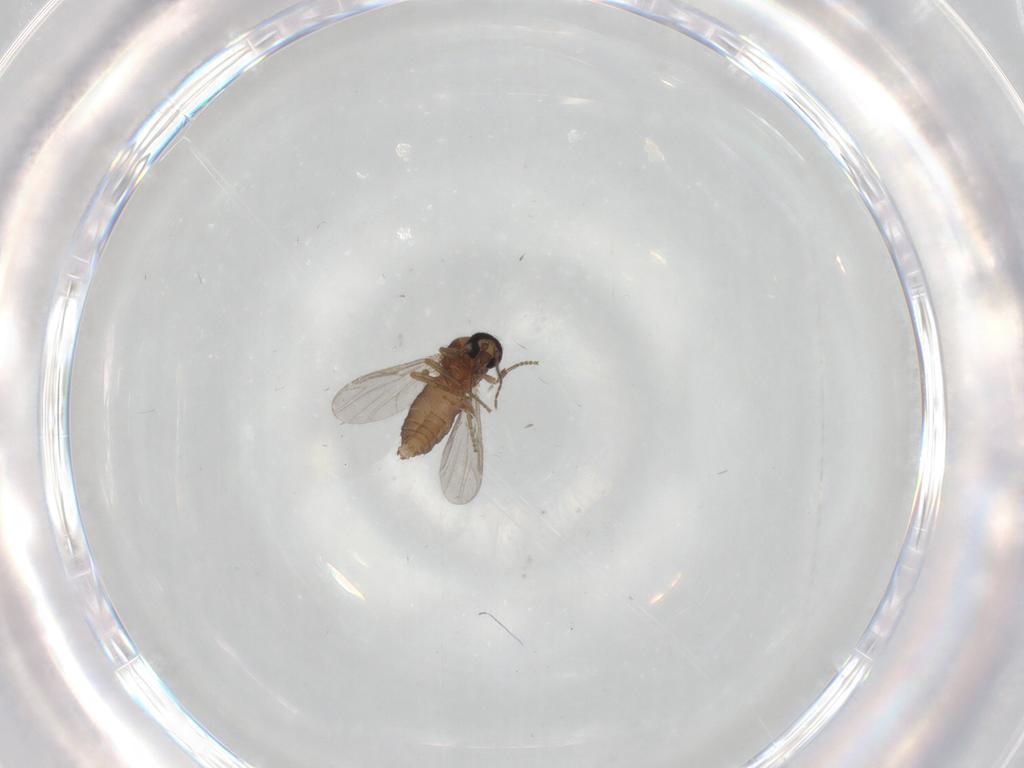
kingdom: Animalia
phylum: Arthropoda
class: Insecta
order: Diptera
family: Ceratopogonidae
